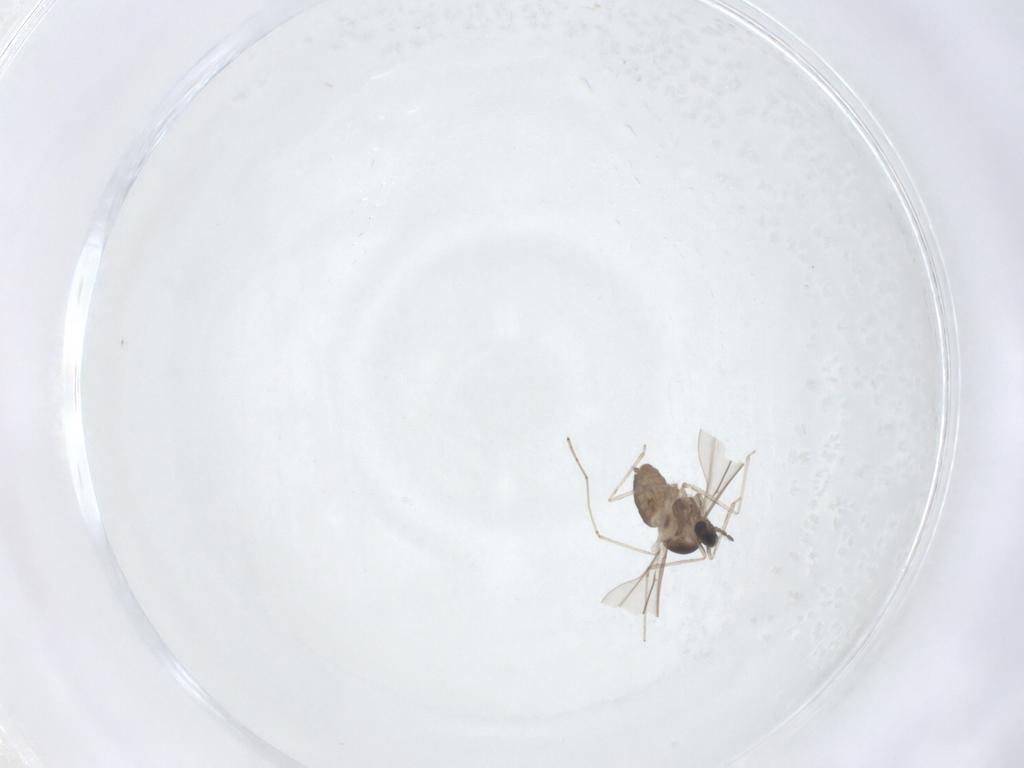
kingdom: Animalia
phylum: Arthropoda
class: Insecta
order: Diptera
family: Cecidomyiidae
